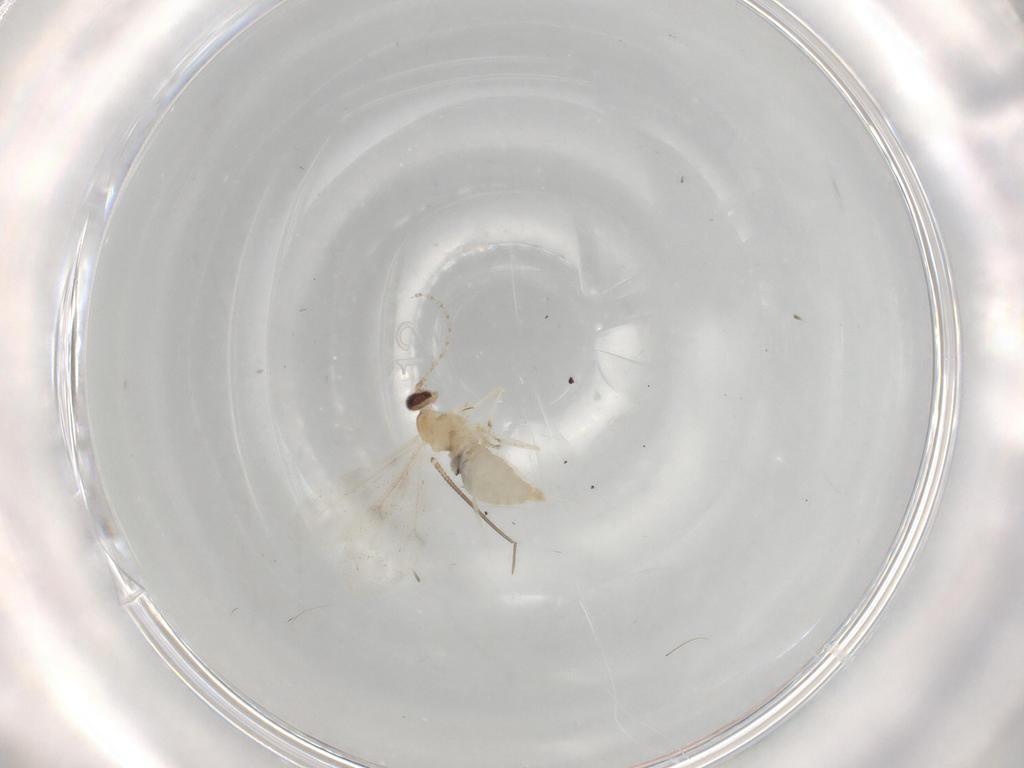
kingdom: Animalia
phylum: Arthropoda
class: Insecta
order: Diptera
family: Cecidomyiidae
